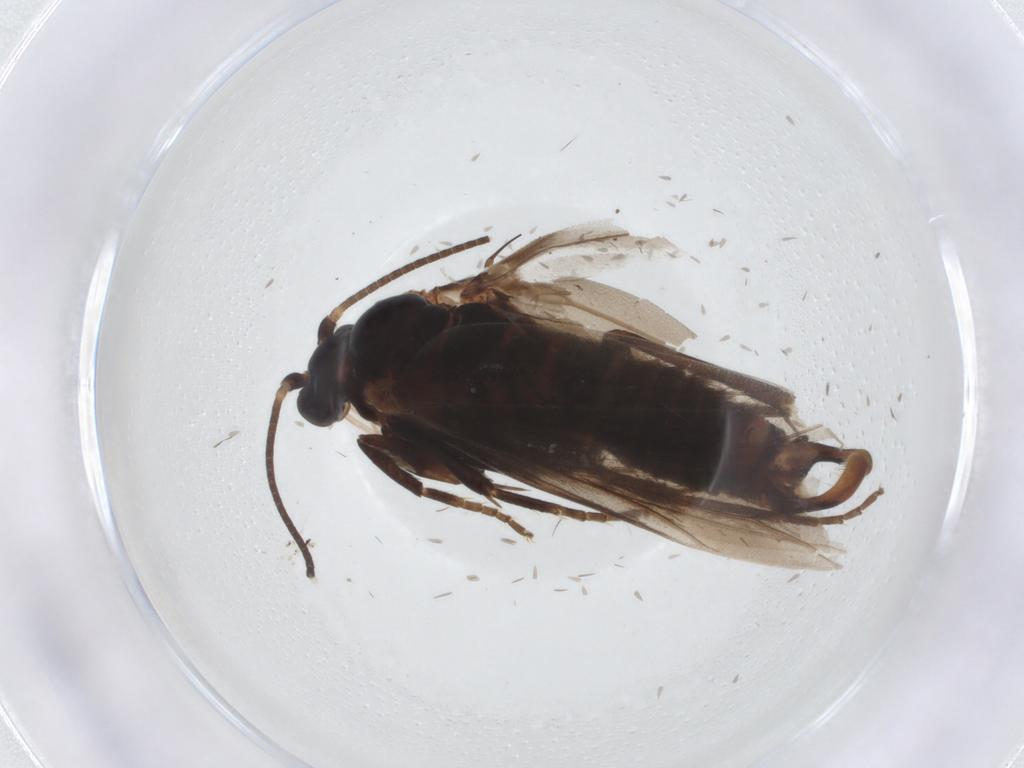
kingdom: Animalia
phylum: Arthropoda
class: Insecta
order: Lepidoptera
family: Prodoxidae
